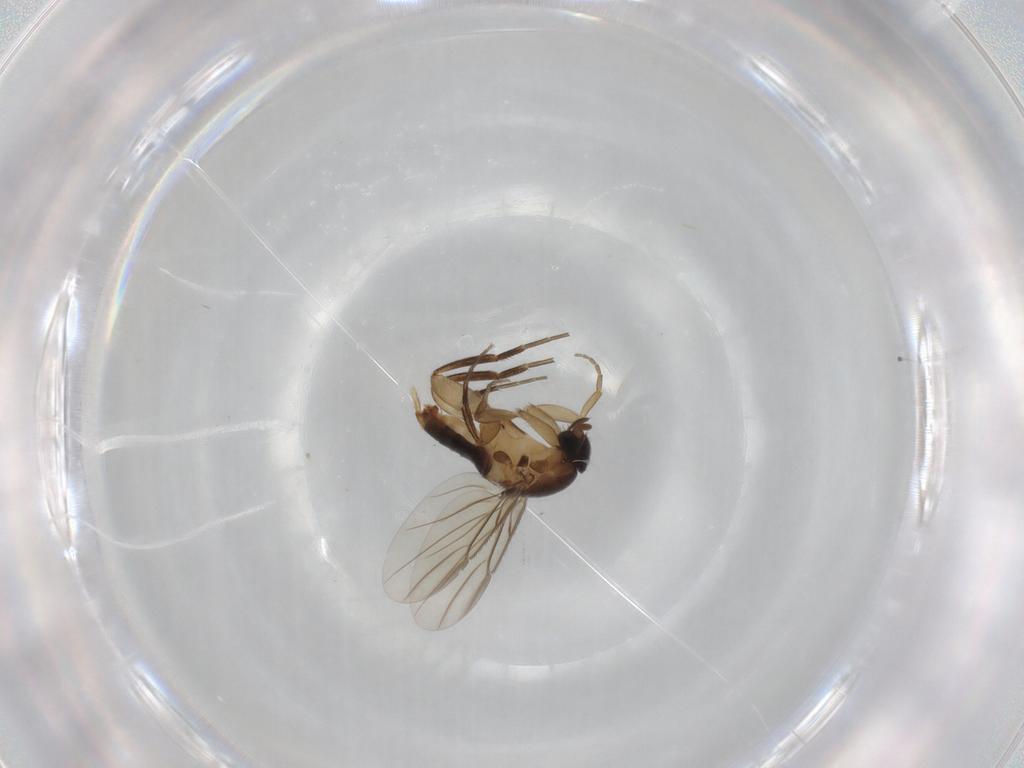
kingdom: Animalia
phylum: Arthropoda
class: Insecta
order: Diptera
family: Phoridae
